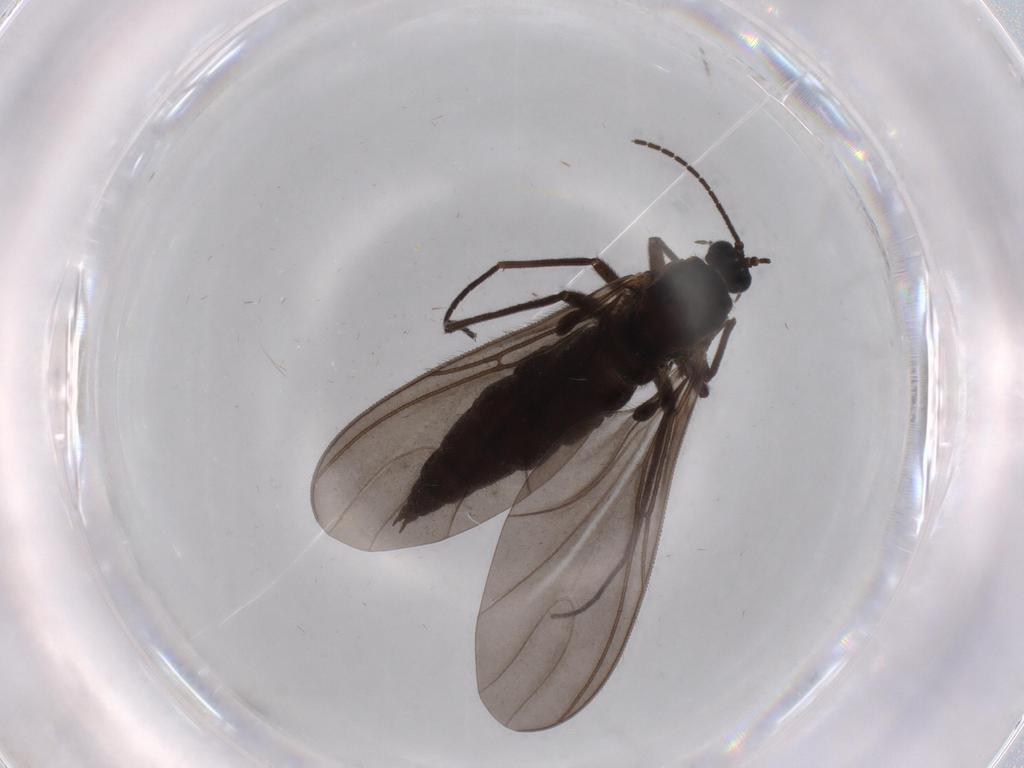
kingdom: Animalia
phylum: Arthropoda
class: Insecta
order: Diptera
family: Sciaridae
